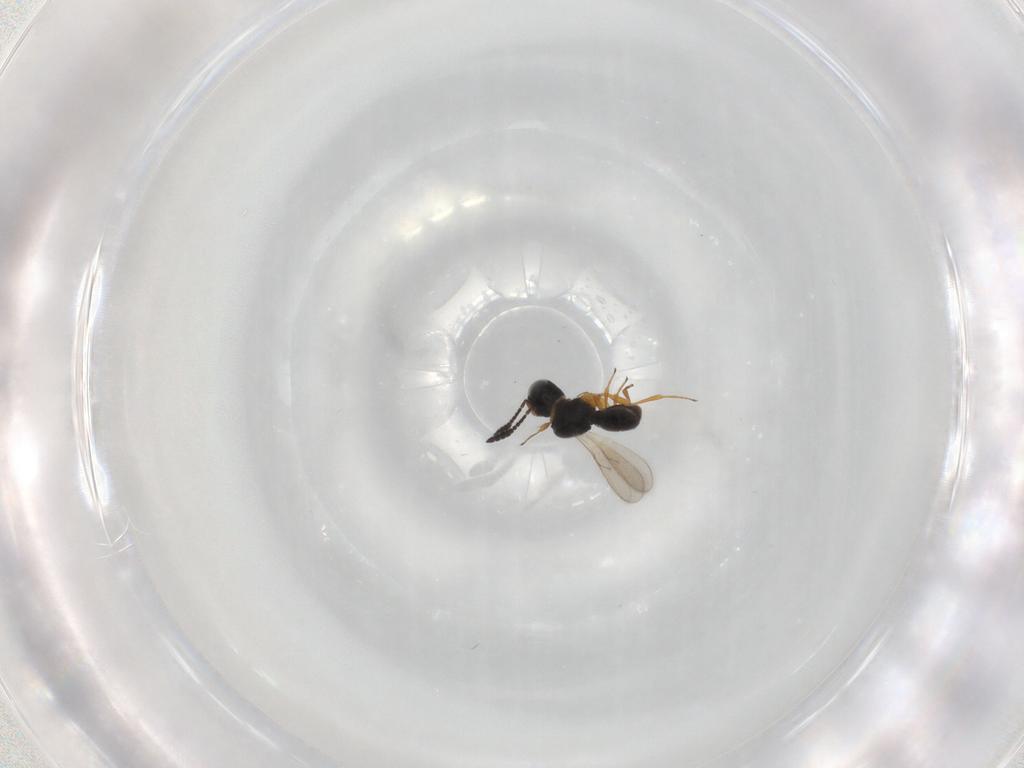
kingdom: Animalia
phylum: Arthropoda
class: Insecta
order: Hymenoptera
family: Scelionidae
